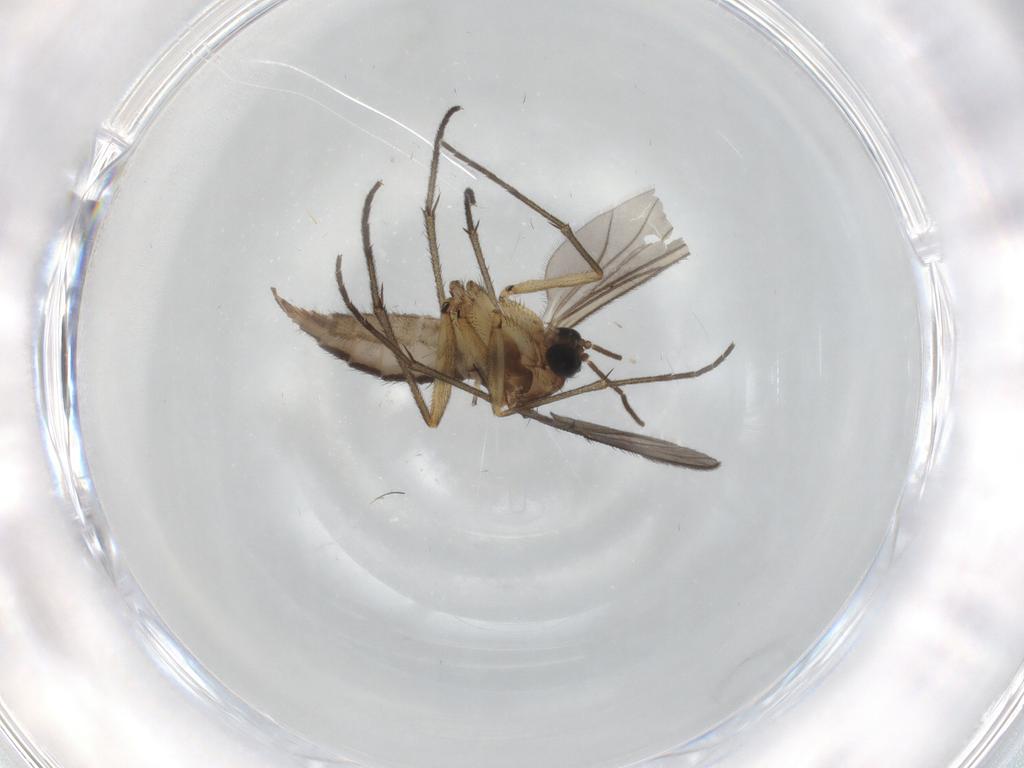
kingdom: Animalia
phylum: Arthropoda
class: Insecta
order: Diptera
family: Sciaridae
